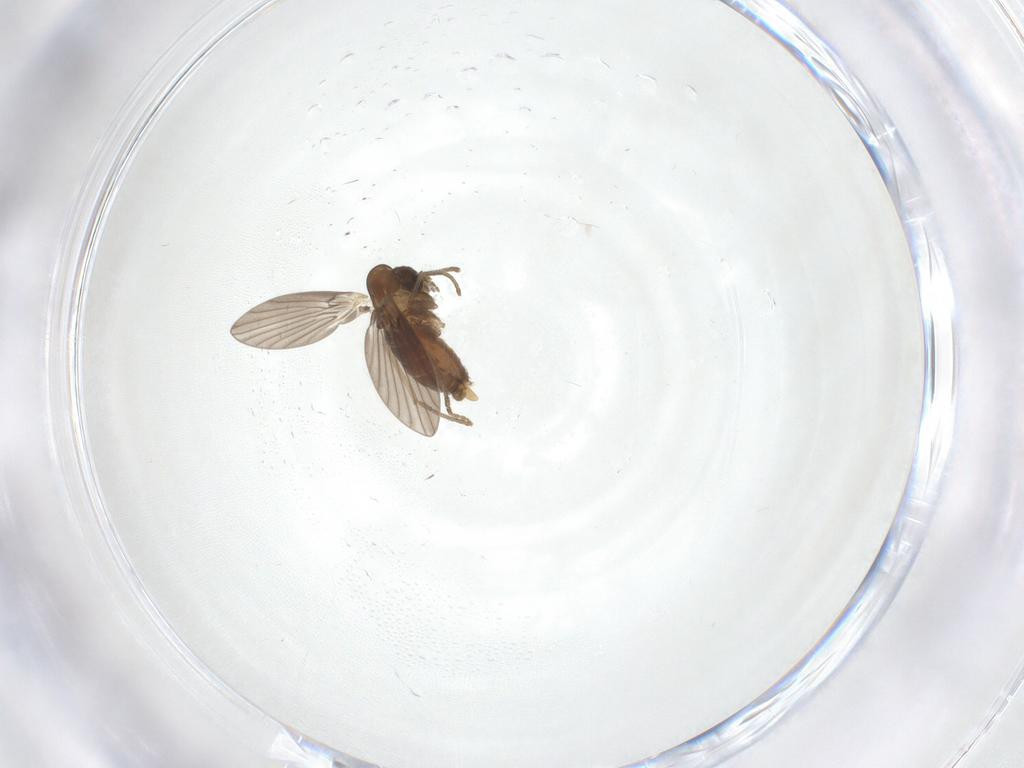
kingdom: Animalia
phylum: Arthropoda
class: Insecta
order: Diptera
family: Psychodidae
